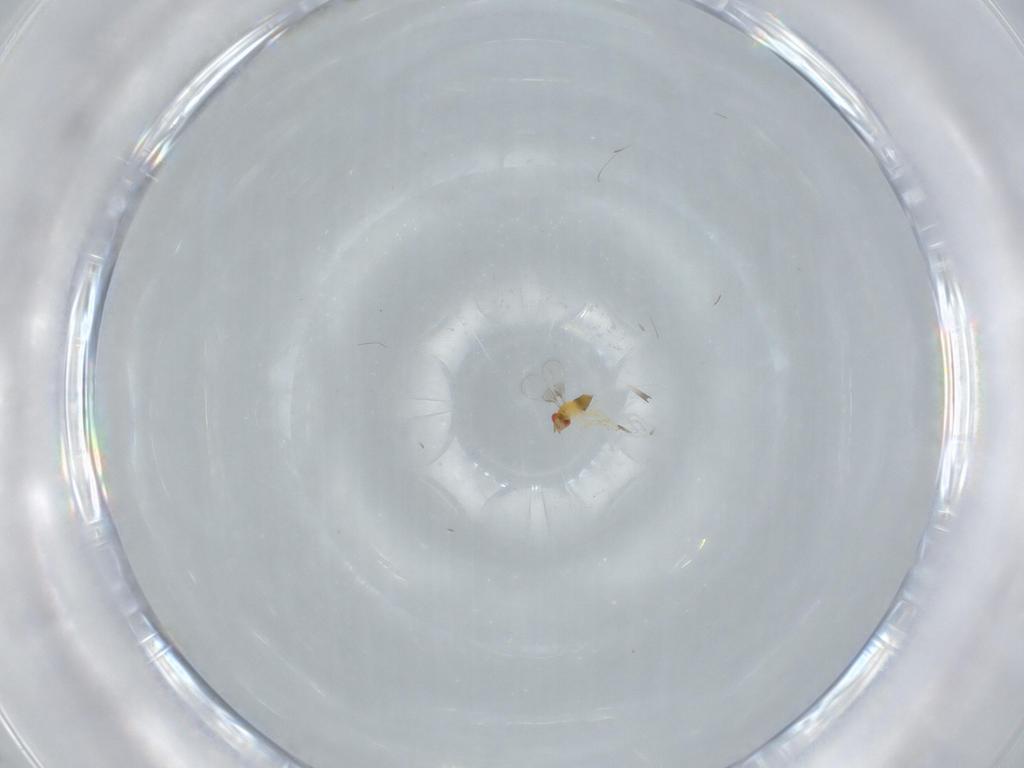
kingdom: Animalia
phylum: Arthropoda
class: Insecta
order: Hymenoptera
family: Trichogrammatidae
